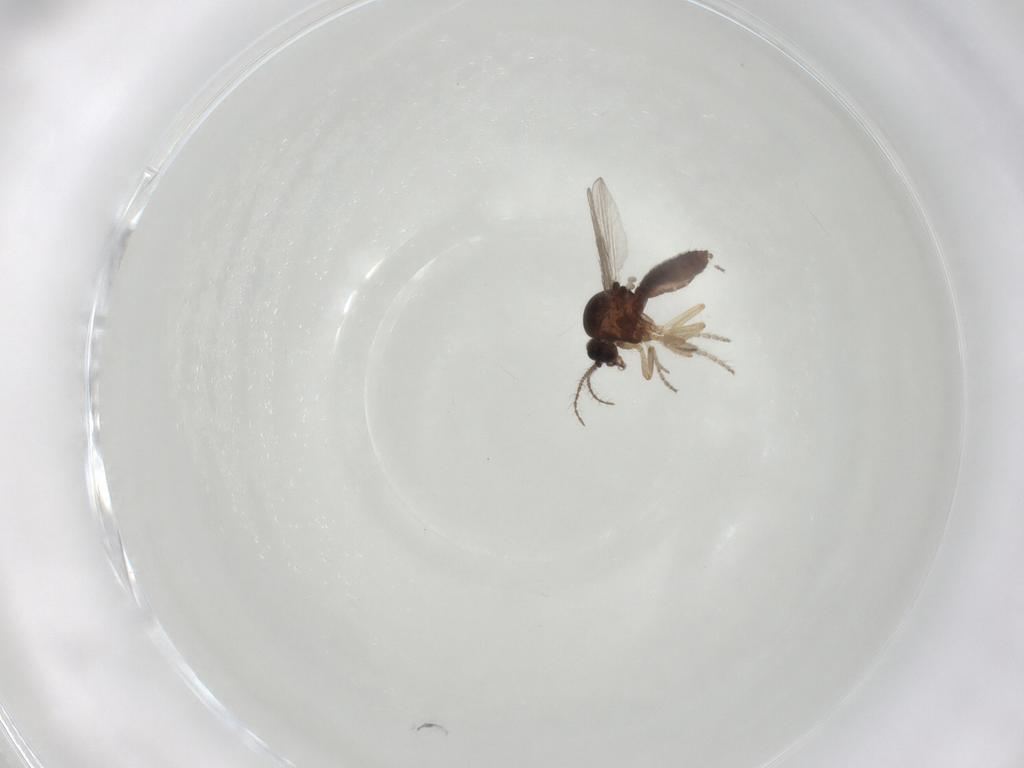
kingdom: Animalia
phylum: Arthropoda
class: Insecta
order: Diptera
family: Ceratopogonidae
